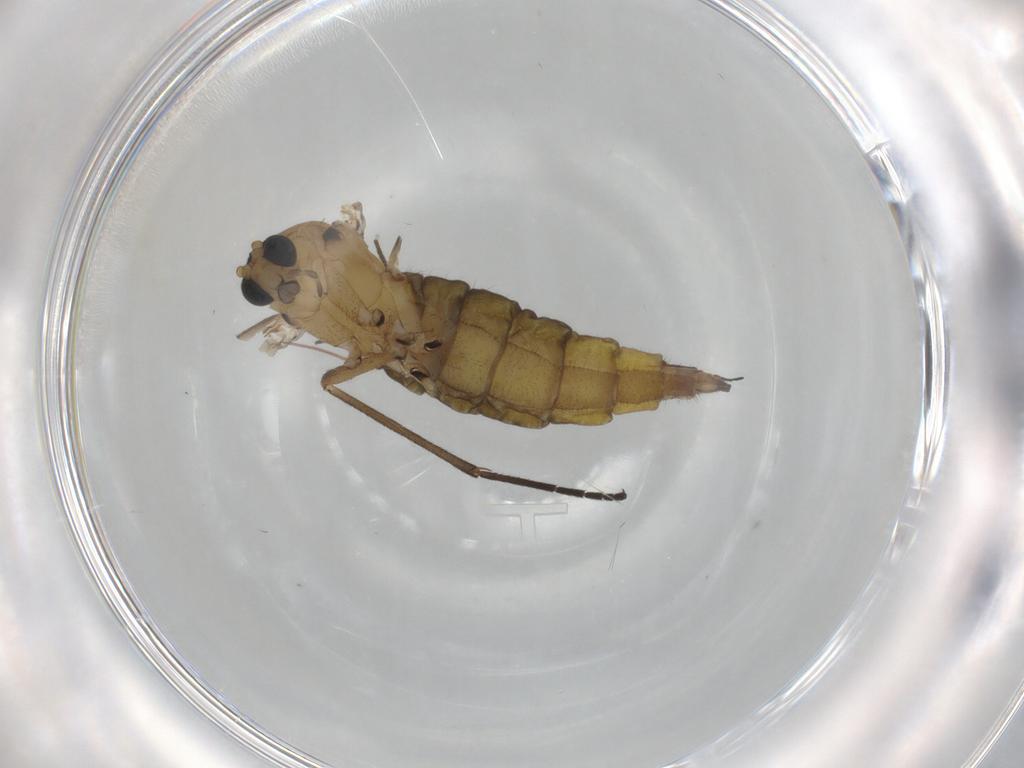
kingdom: Animalia
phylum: Arthropoda
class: Insecta
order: Diptera
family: Sciaridae
